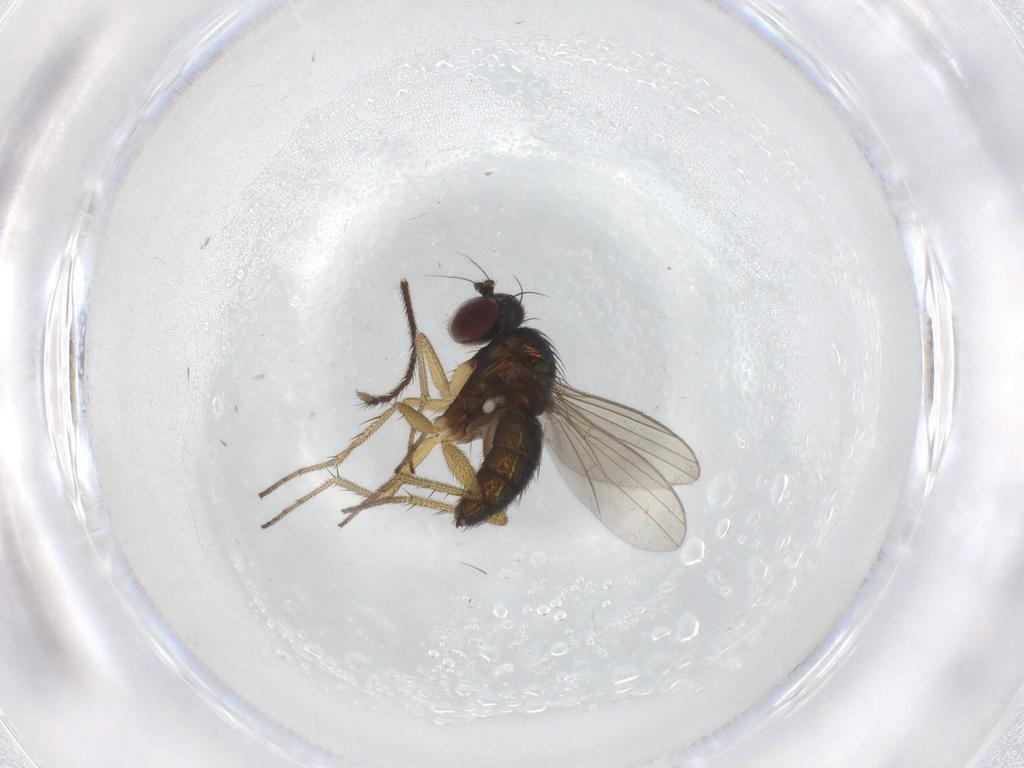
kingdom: Animalia
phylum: Arthropoda
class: Insecta
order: Diptera
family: Dolichopodidae
